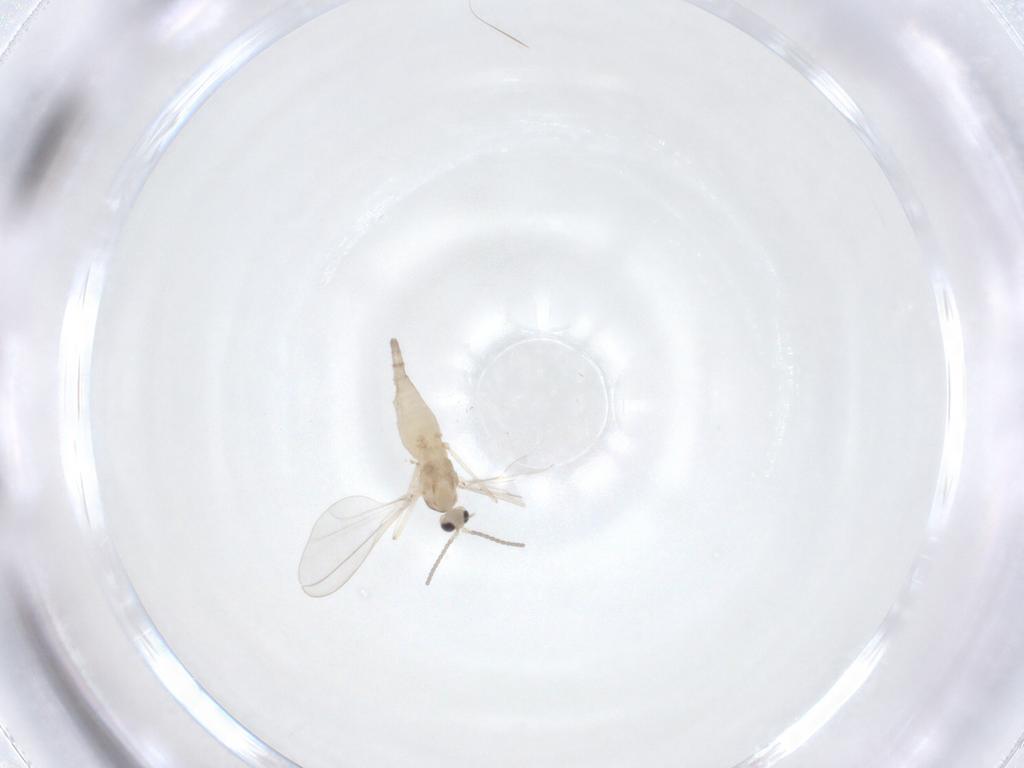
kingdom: Animalia
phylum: Arthropoda
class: Insecta
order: Diptera
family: Cecidomyiidae
